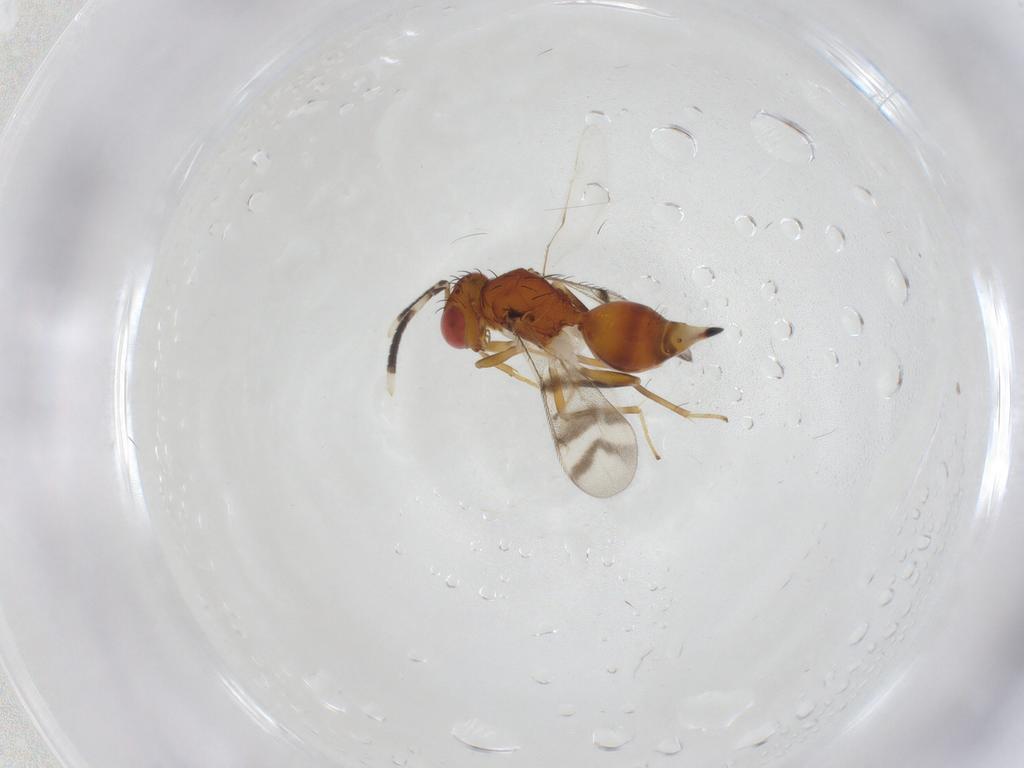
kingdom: Animalia
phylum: Arthropoda
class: Insecta
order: Hymenoptera
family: Diparidae
